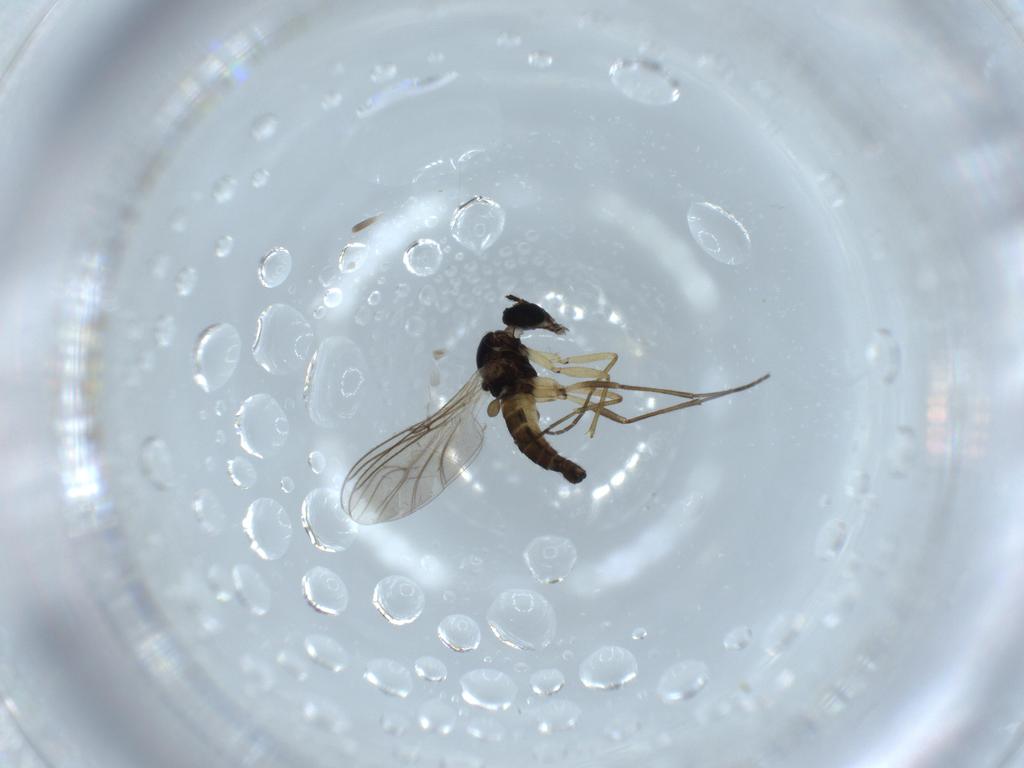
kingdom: Animalia
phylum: Arthropoda
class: Insecta
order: Diptera
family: Sciaridae
